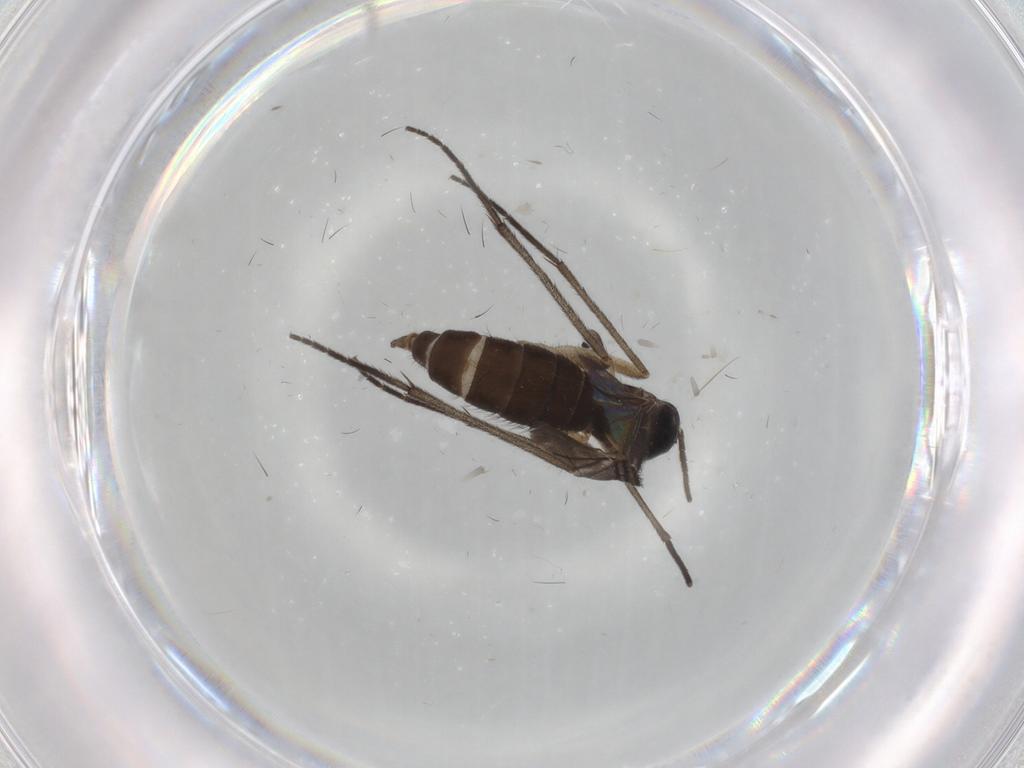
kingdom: Animalia
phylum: Arthropoda
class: Insecta
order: Diptera
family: Sciaridae
